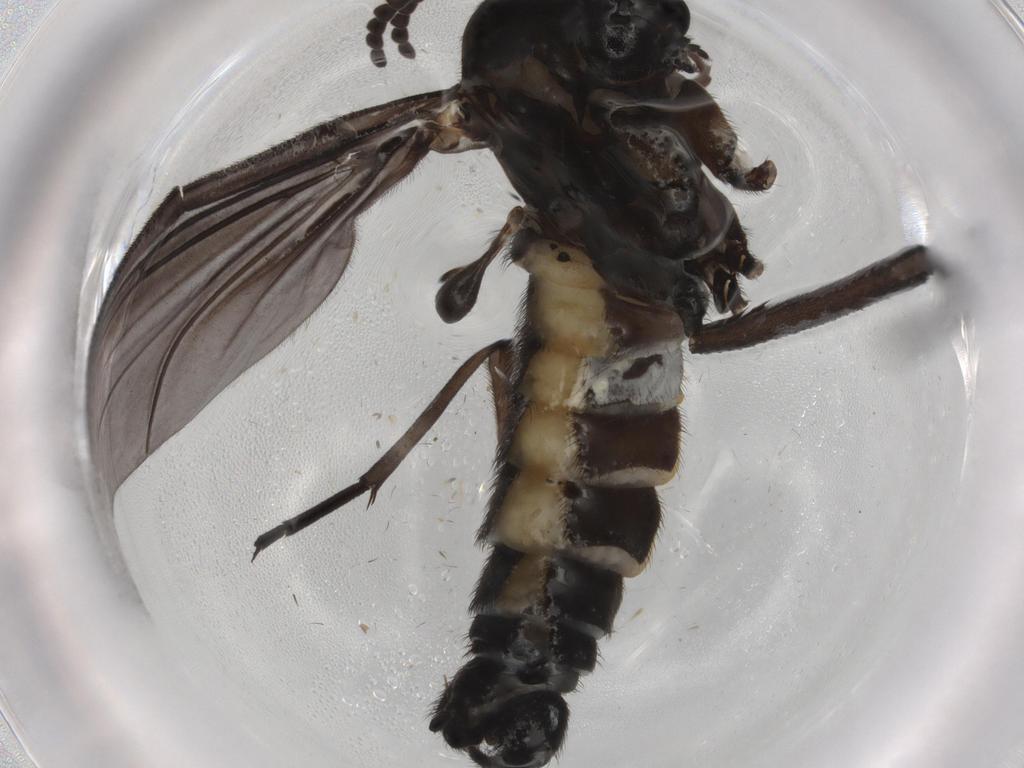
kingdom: Animalia
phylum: Arthropoda
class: Insecta
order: Diptera
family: Sciaridae
